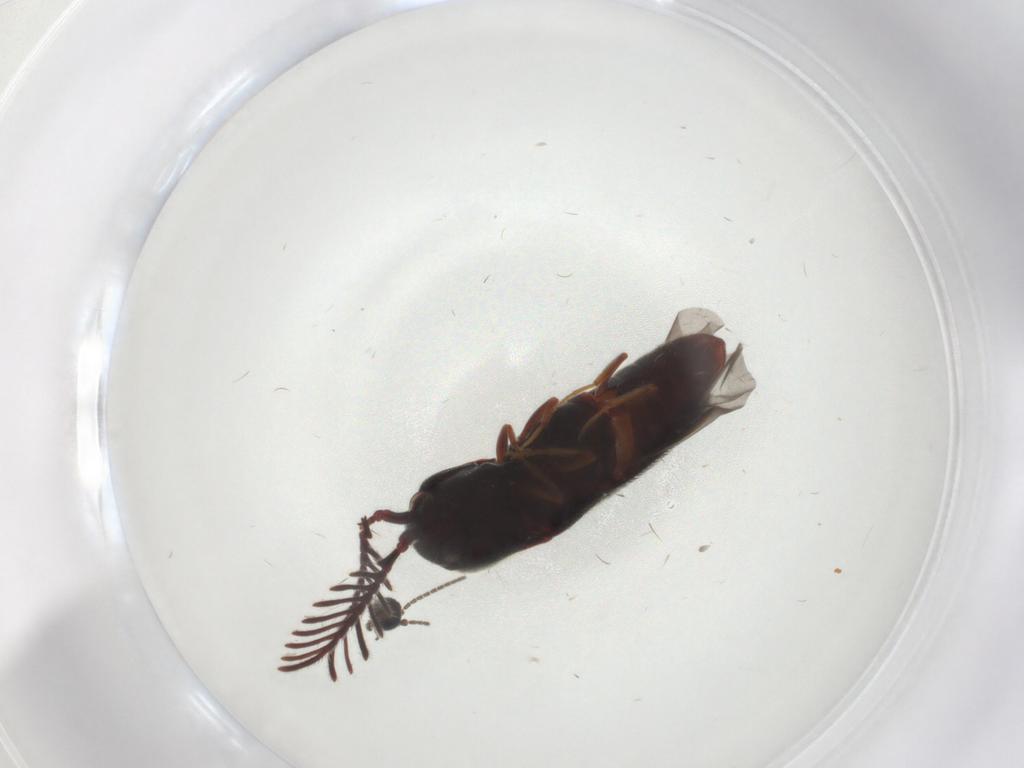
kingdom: Animalia
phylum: Arthropoda
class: Insecta
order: Coleoptera
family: Eucnemidae
